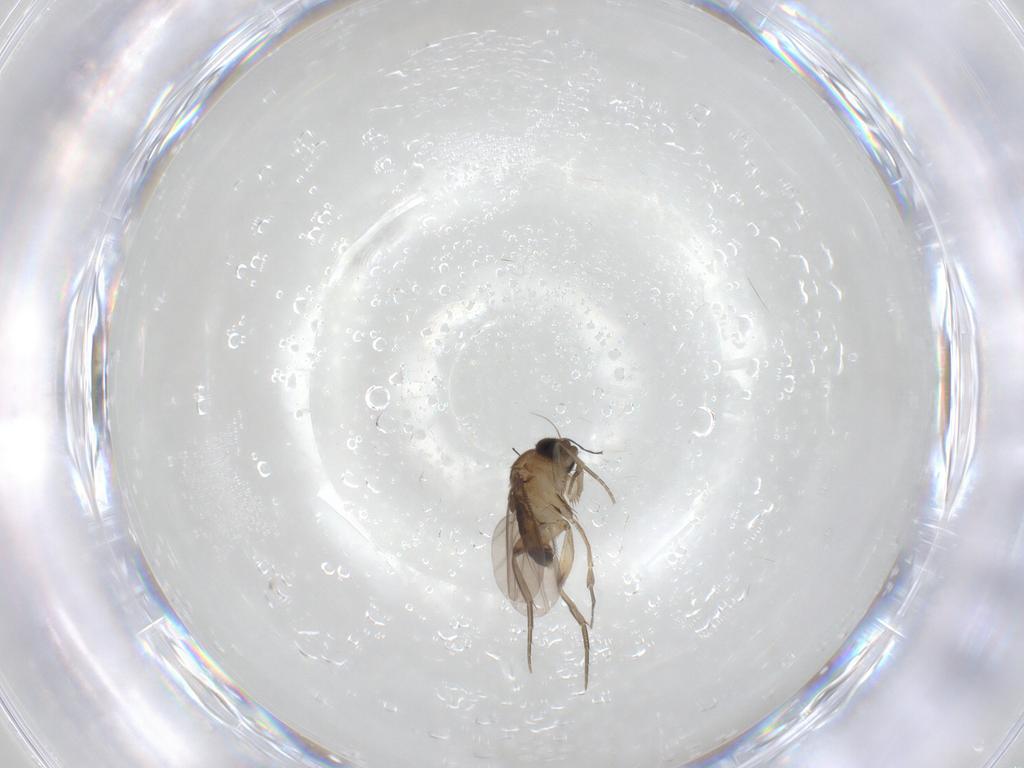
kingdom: Animalia
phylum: Arthropoda
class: Insecta
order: Diptera
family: Phoridae
